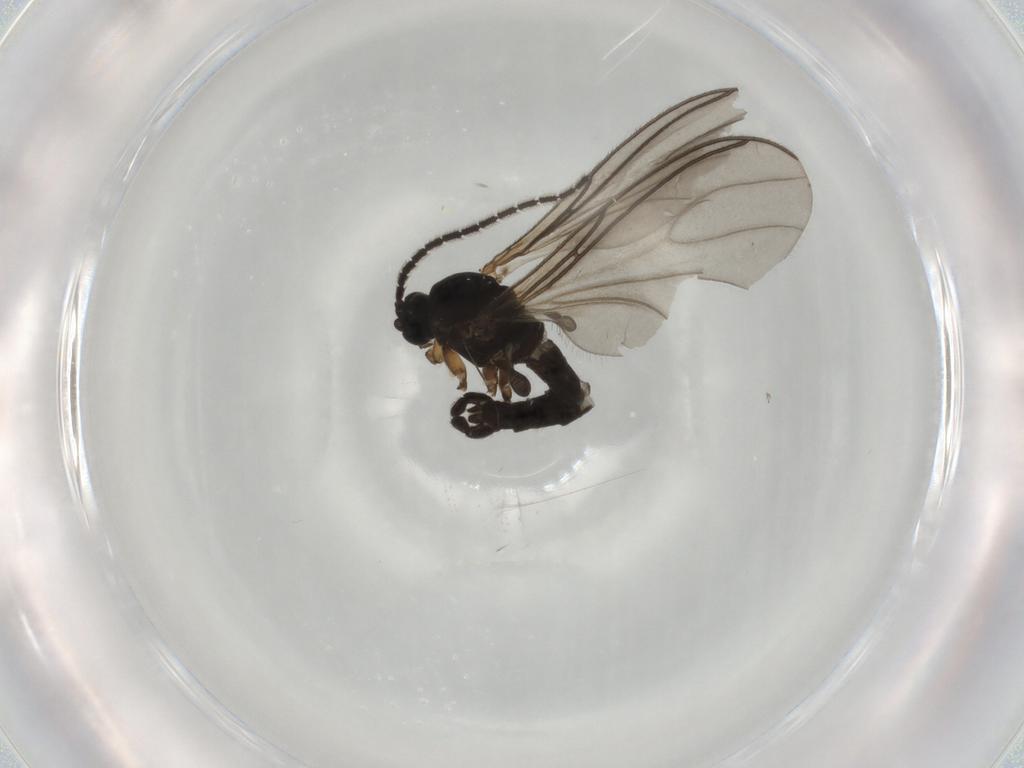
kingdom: Animalia
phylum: Arthropoda
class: Insecta
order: Diptera
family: Sciaridae
